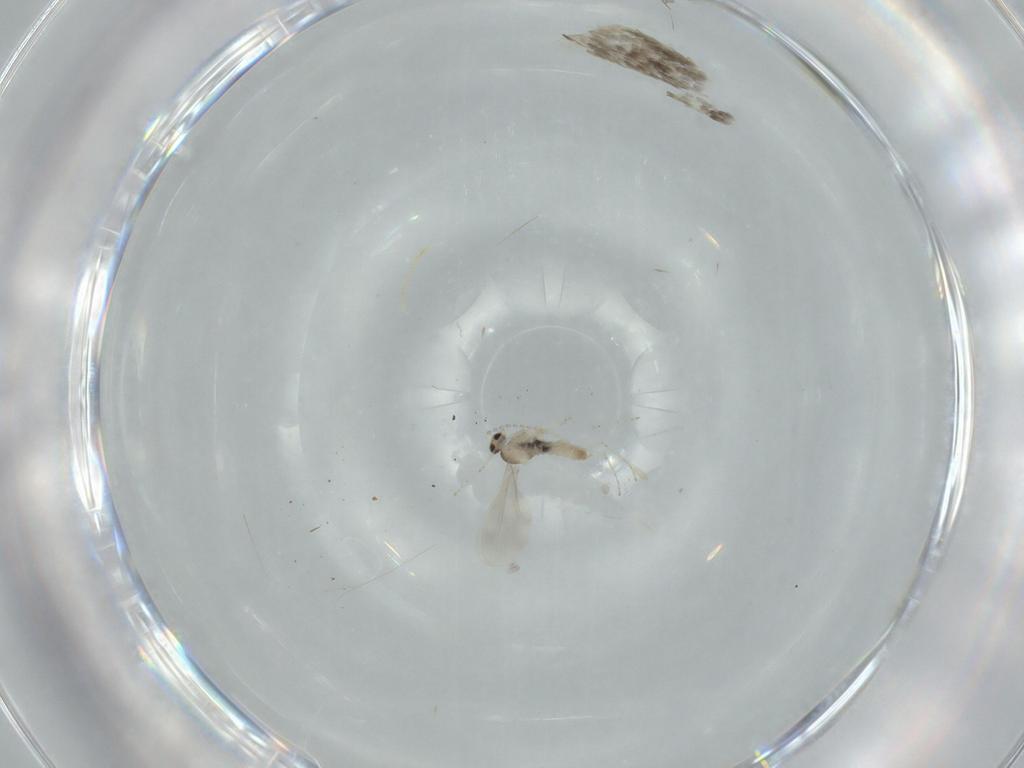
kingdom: Animalia
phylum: Arthropoda
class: Insecta
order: Diptera
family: Cecidomyiidae
